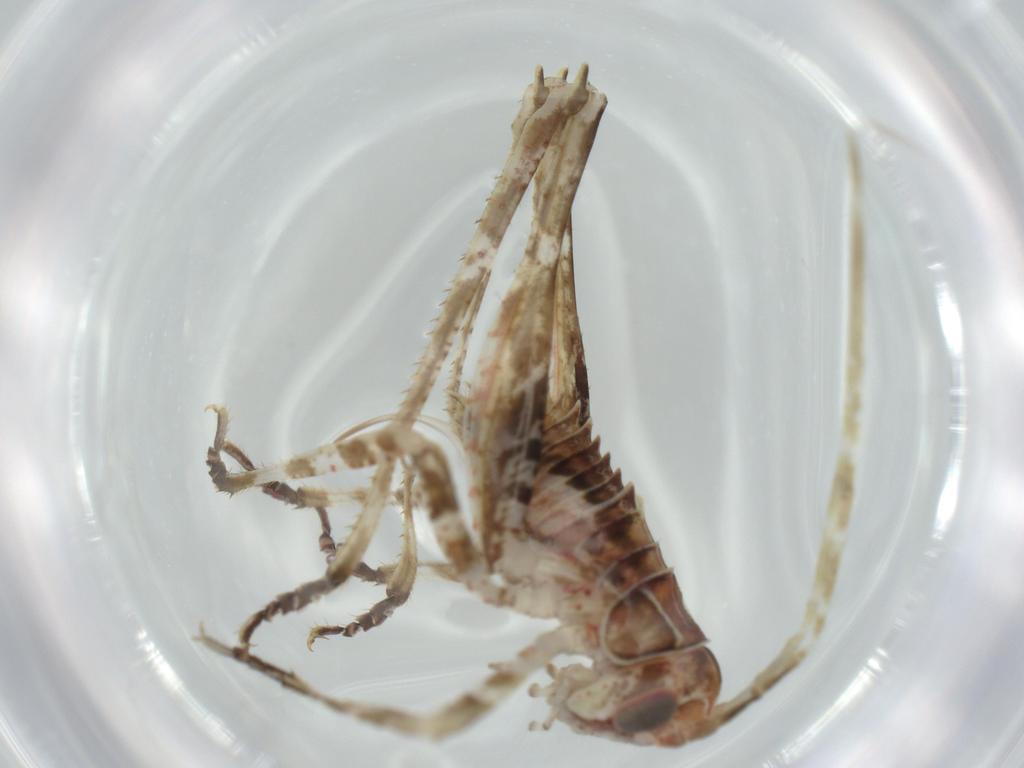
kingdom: Animalia
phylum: Arthropoda
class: Insecta
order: Orthoptera
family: Tettigoniidae
